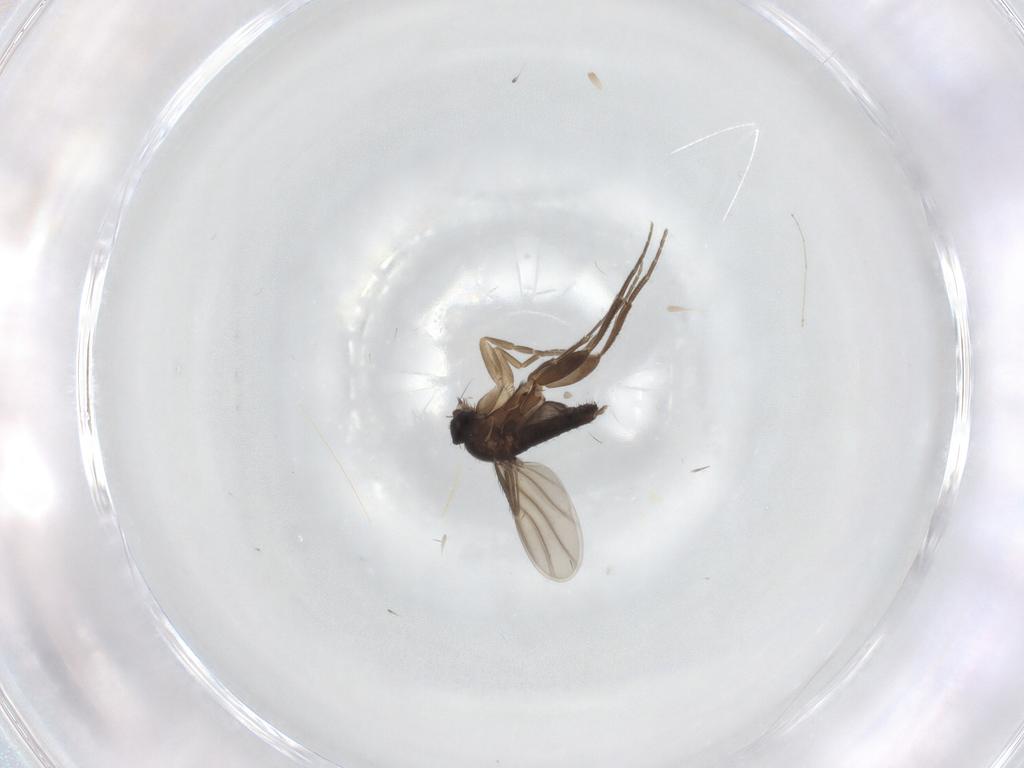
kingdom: Animalia
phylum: Arthropoda
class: Insecta
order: Diptera
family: Phoridae
